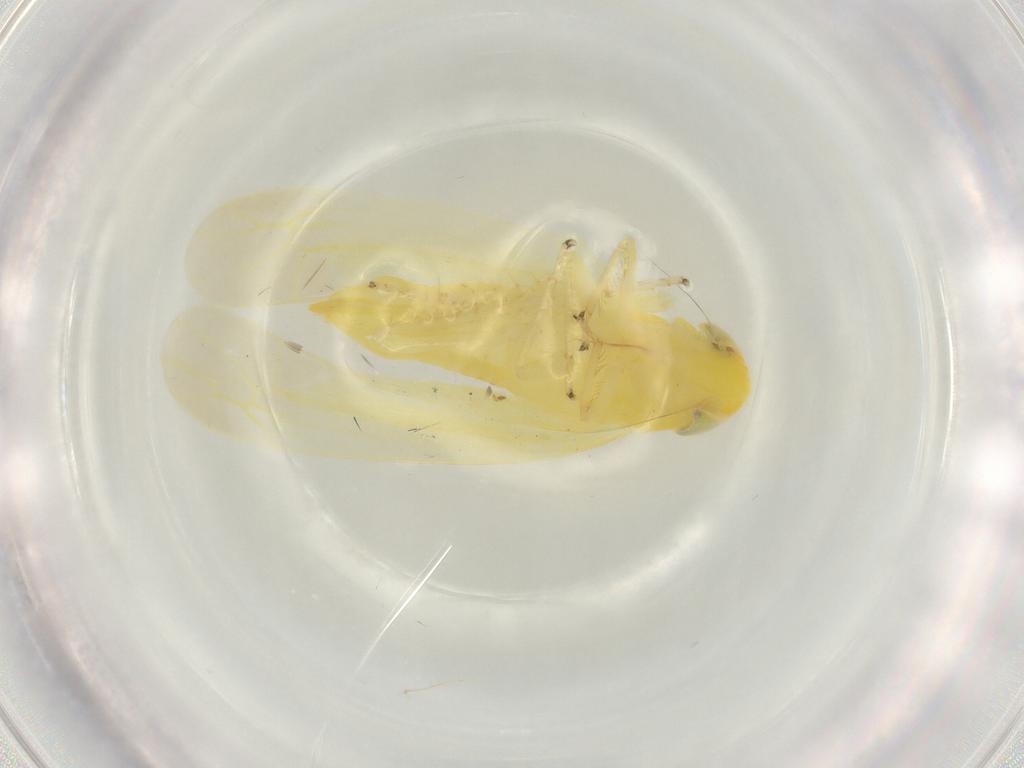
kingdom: Animalia
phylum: Arthropoda
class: Insecta
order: Hemiptera
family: Cicadellidae
